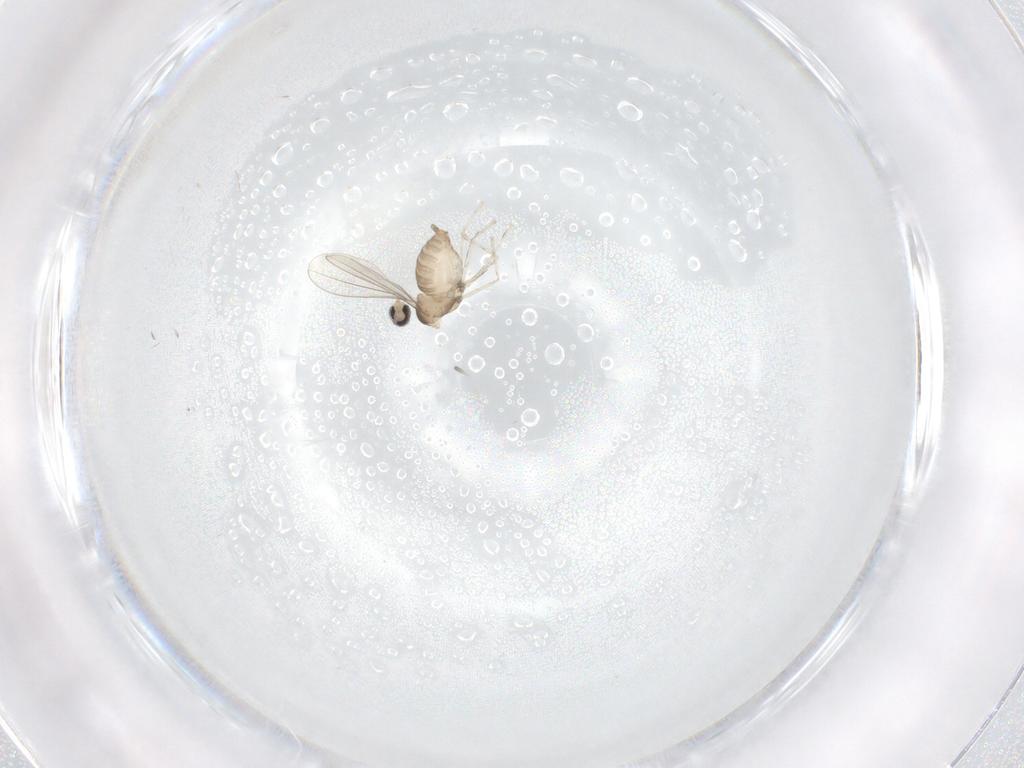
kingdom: Animalia
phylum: Arthropoda
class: Insecta
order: Diptera
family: Cecidomyiidae
